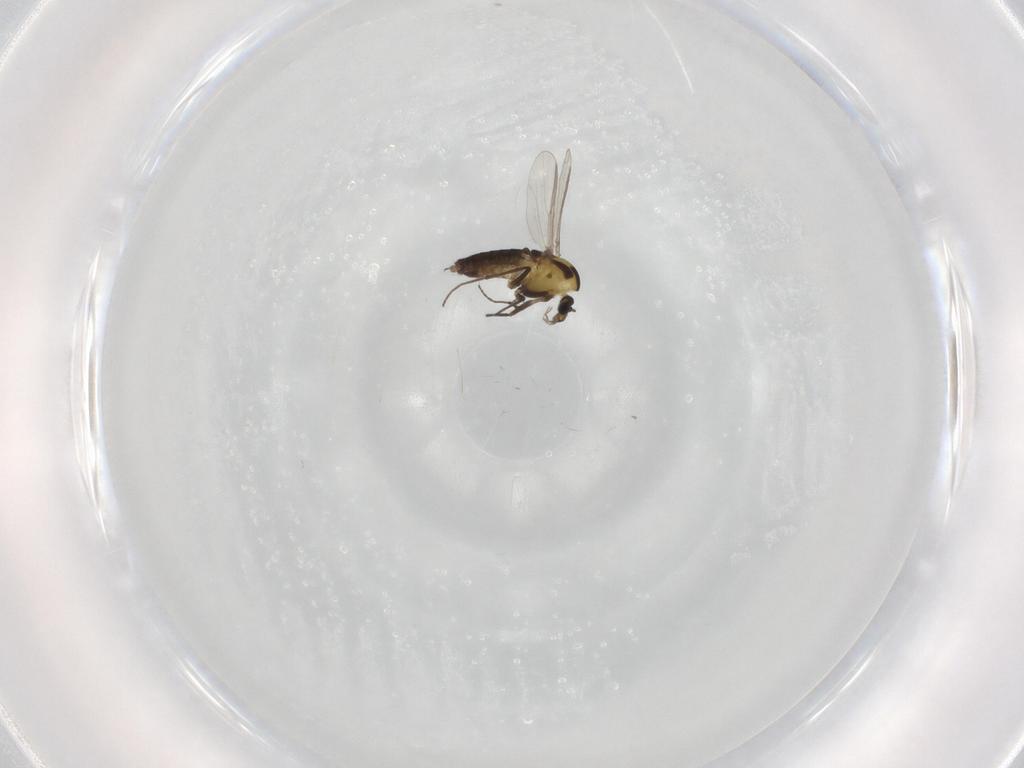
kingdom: Animalia
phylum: Arthropoda
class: Insecta
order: Diptera
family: Chironomidae
